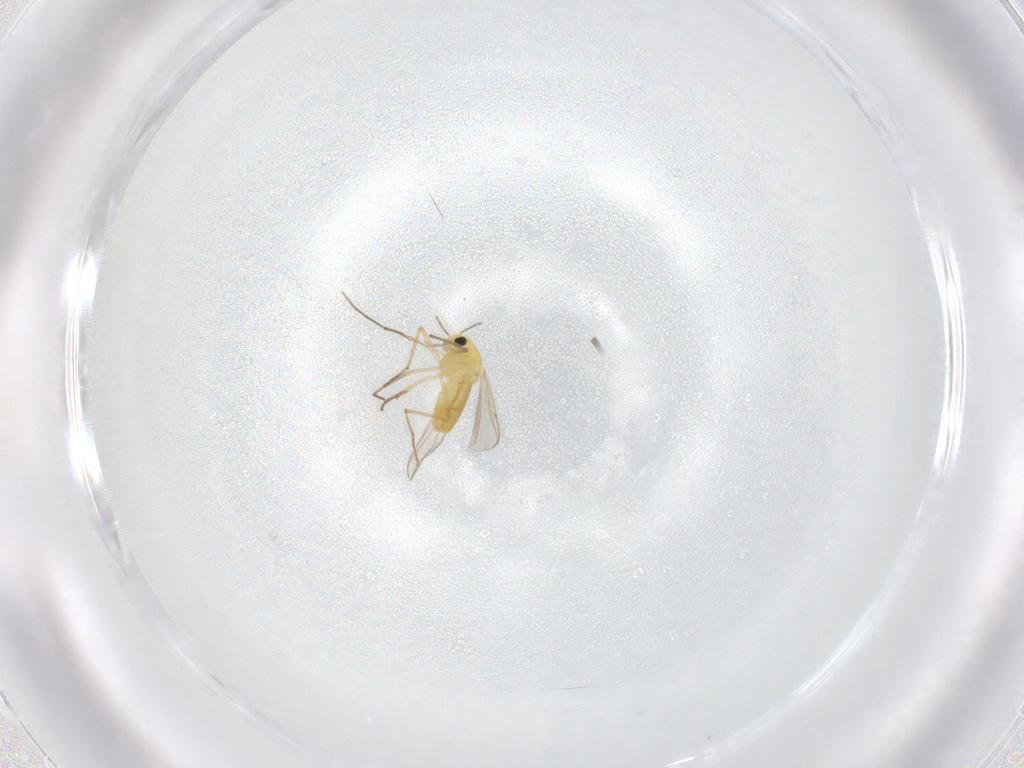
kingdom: Animalia
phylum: Arthropoda
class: Insecta
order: Diptera
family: Chironomidae
